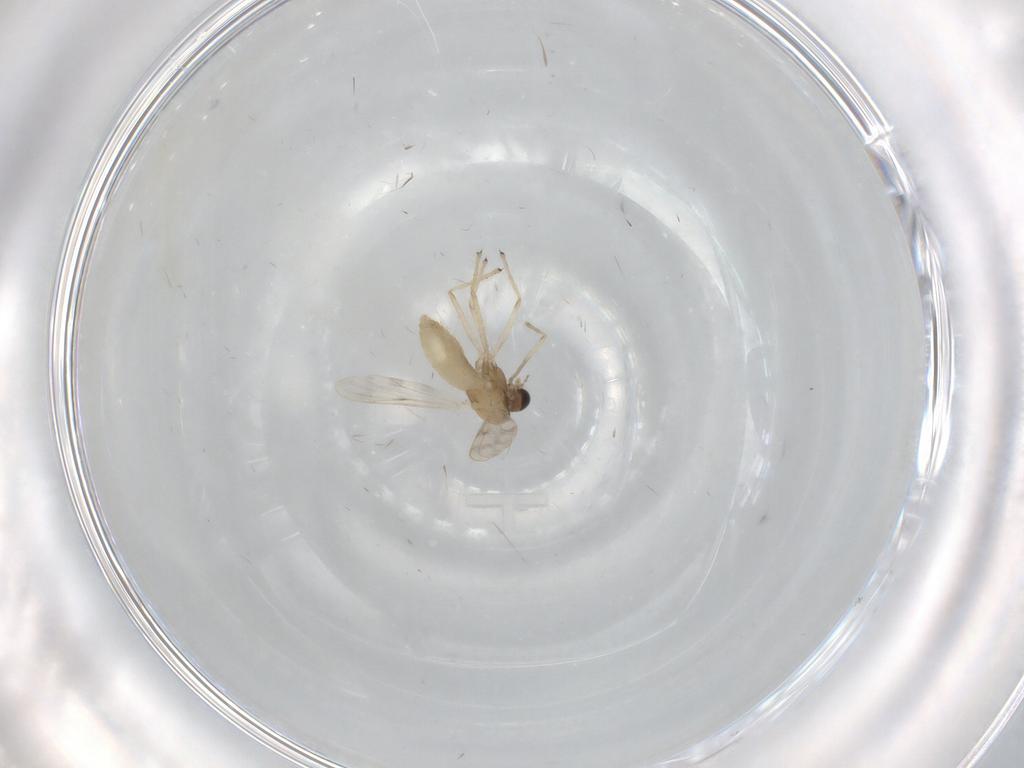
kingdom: Animalia
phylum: Arthropoda
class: Insecta
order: Diptera
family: Chironomidae
